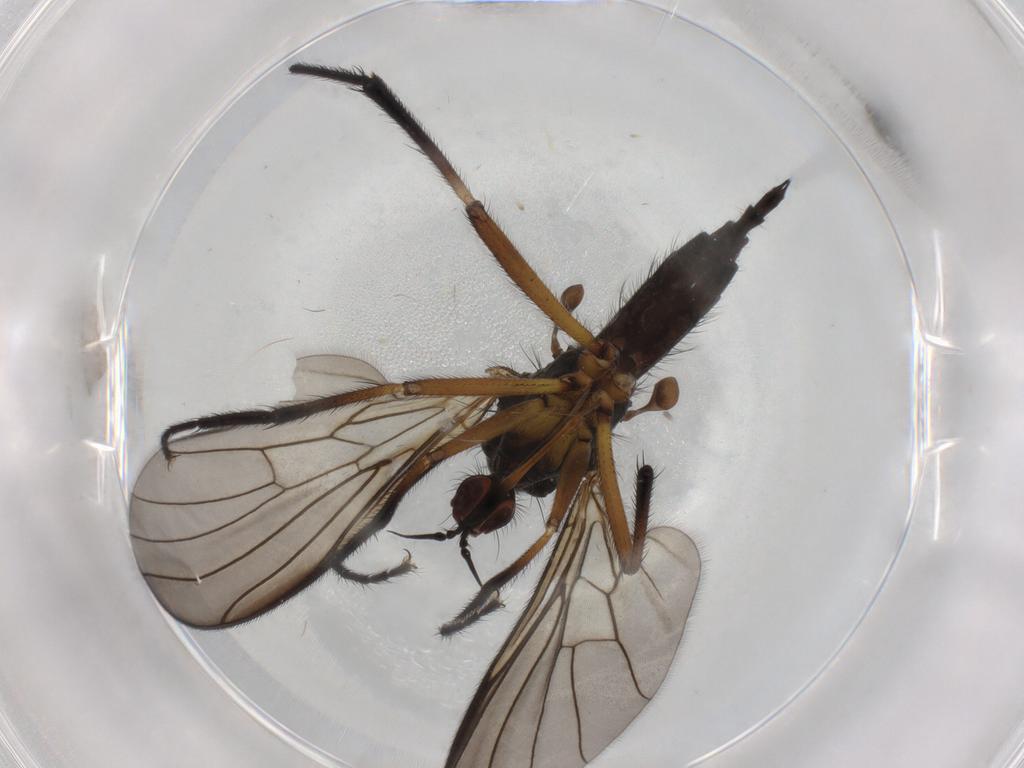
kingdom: Animalia
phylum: Arthropoda
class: Insecta
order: Diptera
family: Empididae
